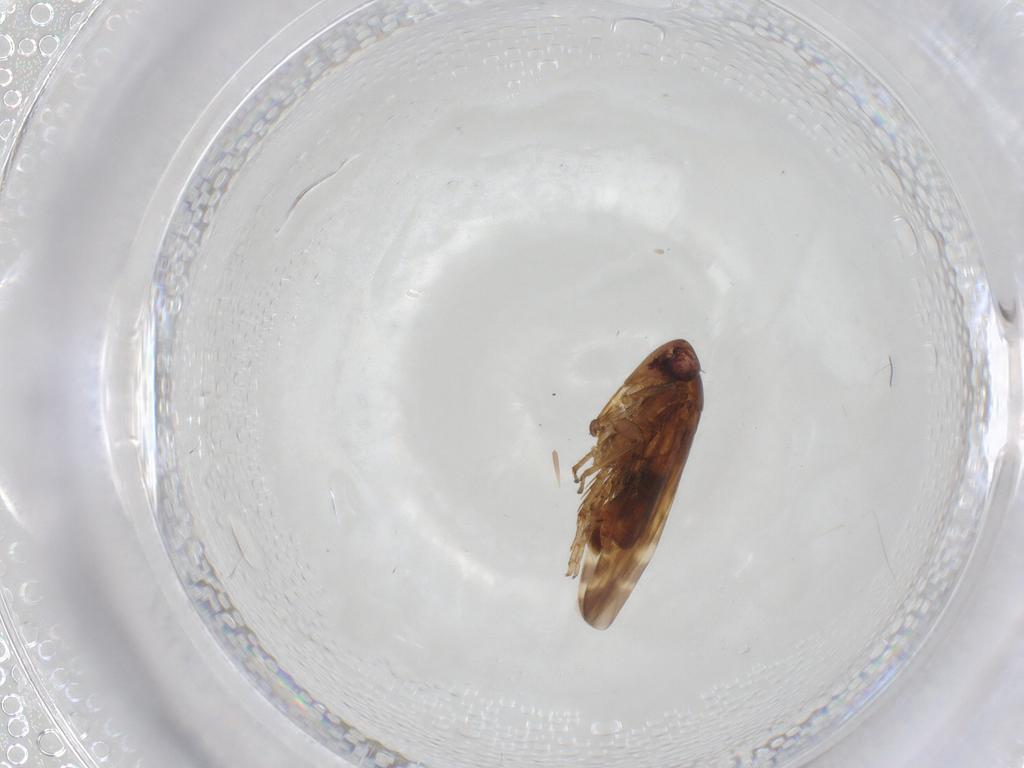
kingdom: Animalia
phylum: Arthropoda
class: Insecta
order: Hemiptera
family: Cicadellidae
